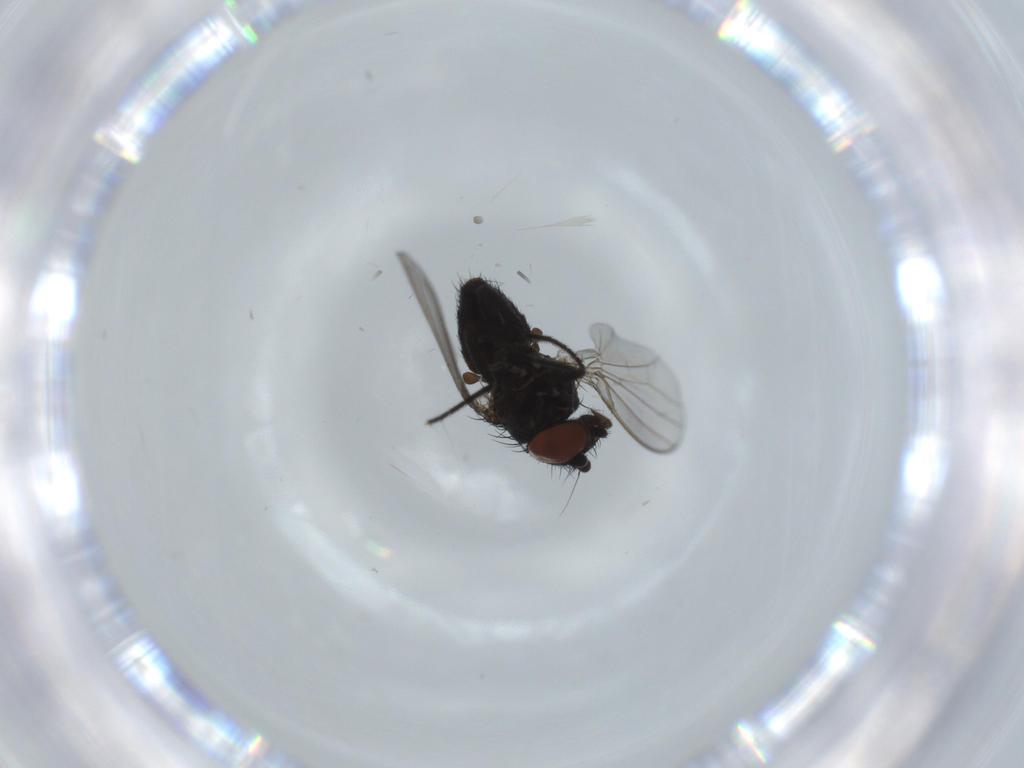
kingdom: Animalia
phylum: Arthropoda
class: Insecta
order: Diptera
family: Milichiidae
